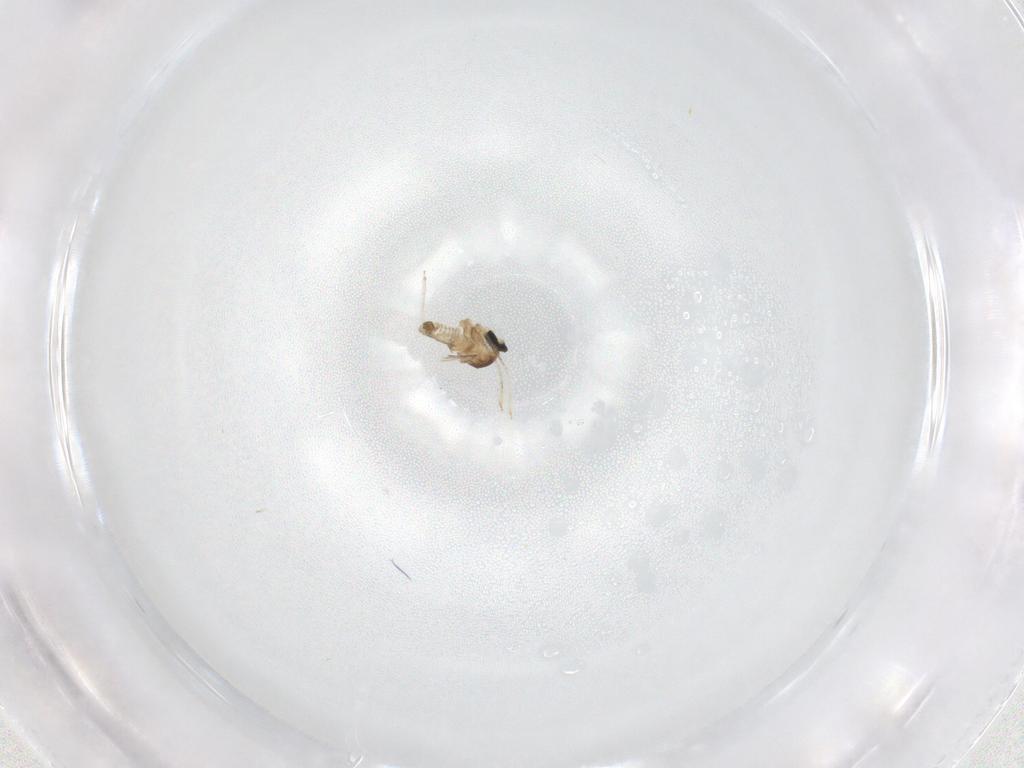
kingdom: Animalia
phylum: Arthropoda
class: Insecta
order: Diptera
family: Cecidomyiidae
